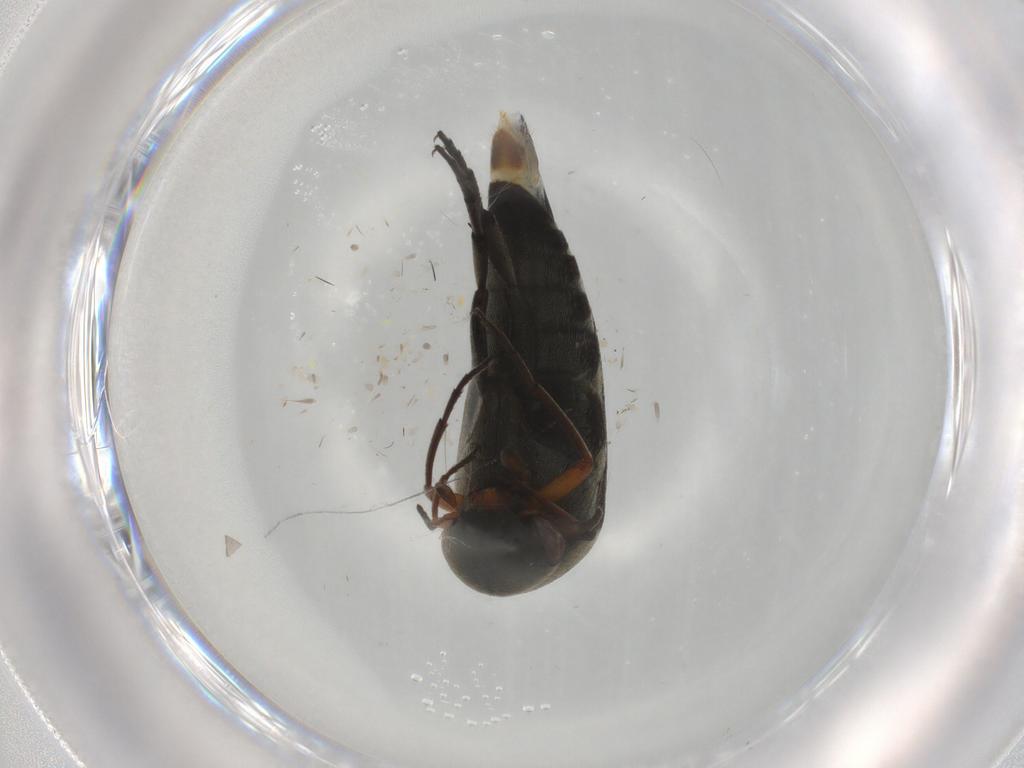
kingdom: Animalia
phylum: Arthropoda
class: Insecta
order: Coleoptera
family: Mordellidae
